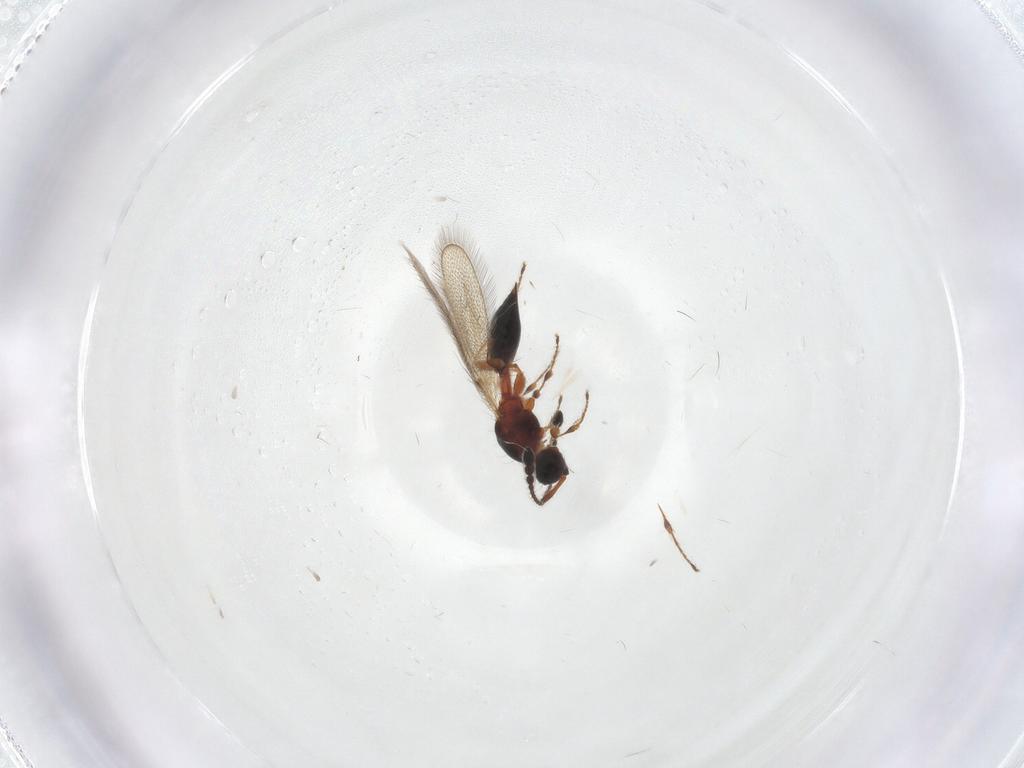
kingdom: Animalia
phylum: Arthropoda
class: Insecta
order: Hymenoptera
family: Diapriidae
